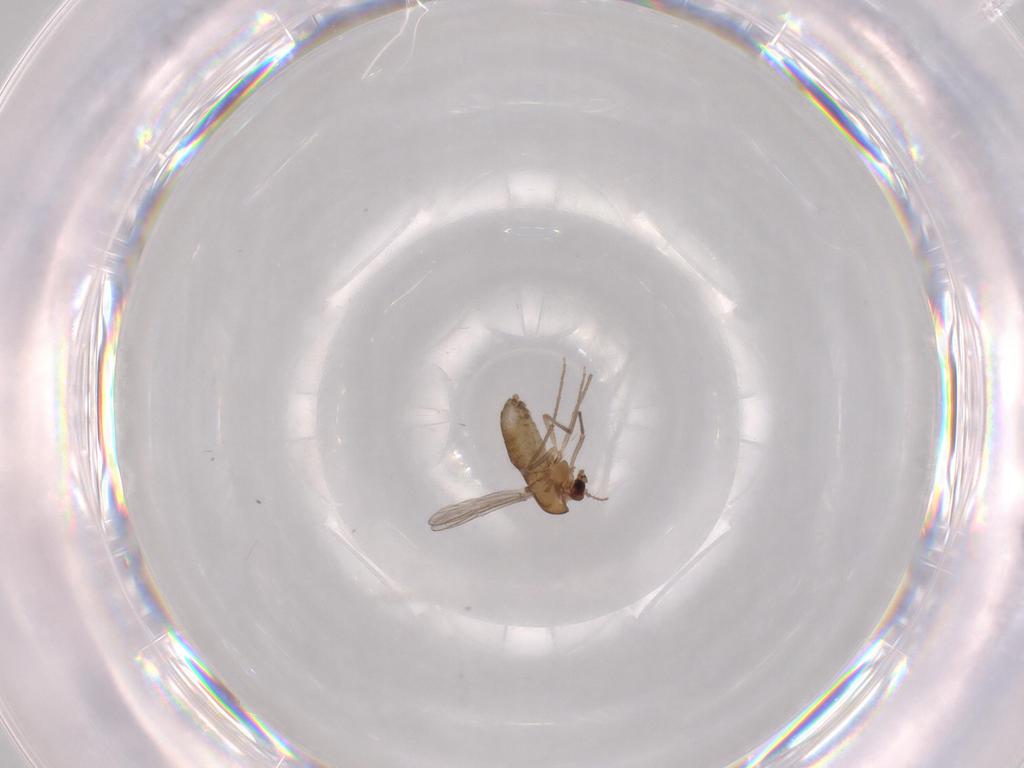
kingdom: Animalia
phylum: Arthropoda
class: Insecta
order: Diptera
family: Chironomidae
